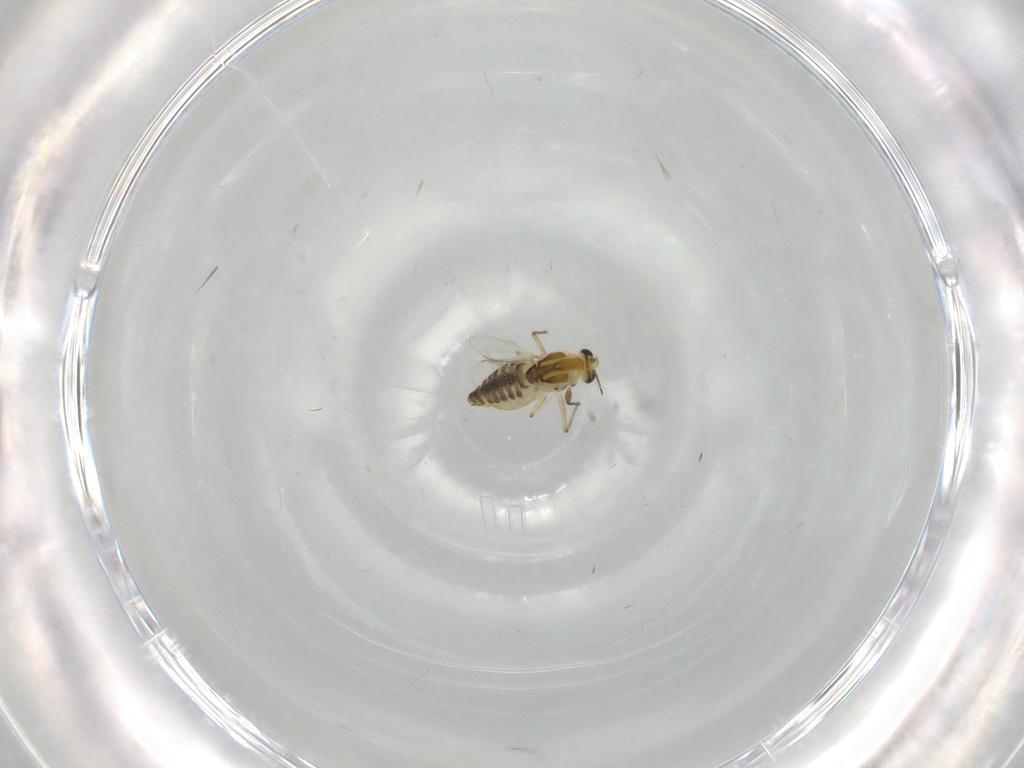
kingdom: Animalia
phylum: Arthropoda
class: Insecta
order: Diptera
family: Chironomidae
